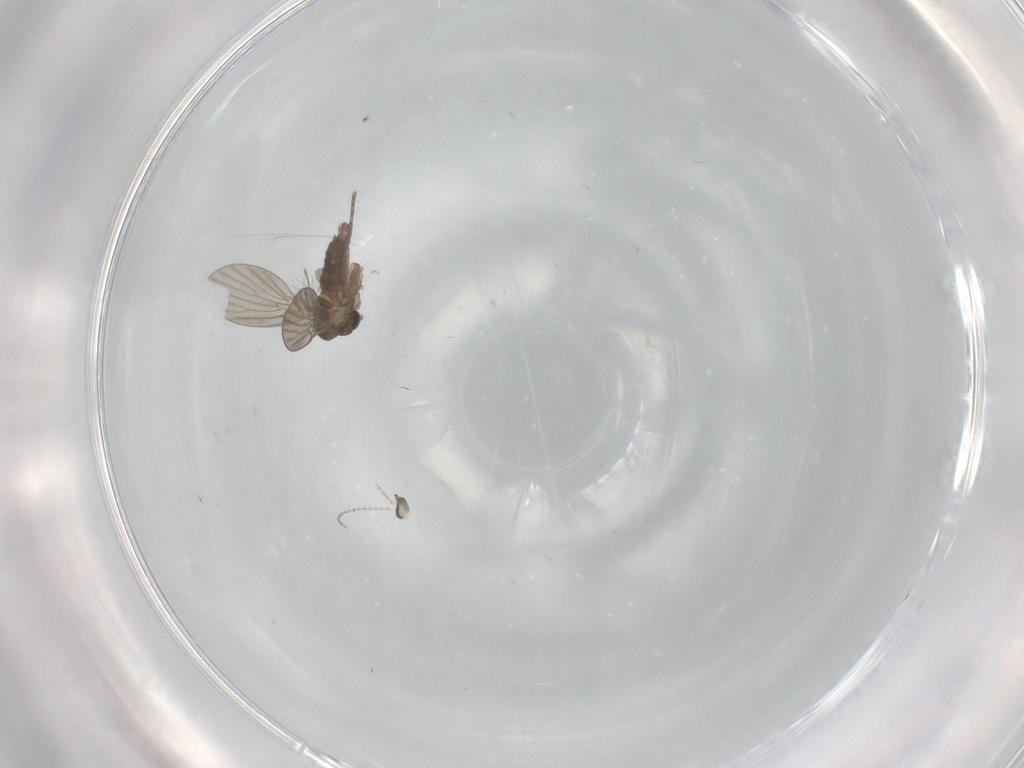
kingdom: Animalia
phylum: Arthropoda
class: Insecta
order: Diptera
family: Cecidomyiidae
